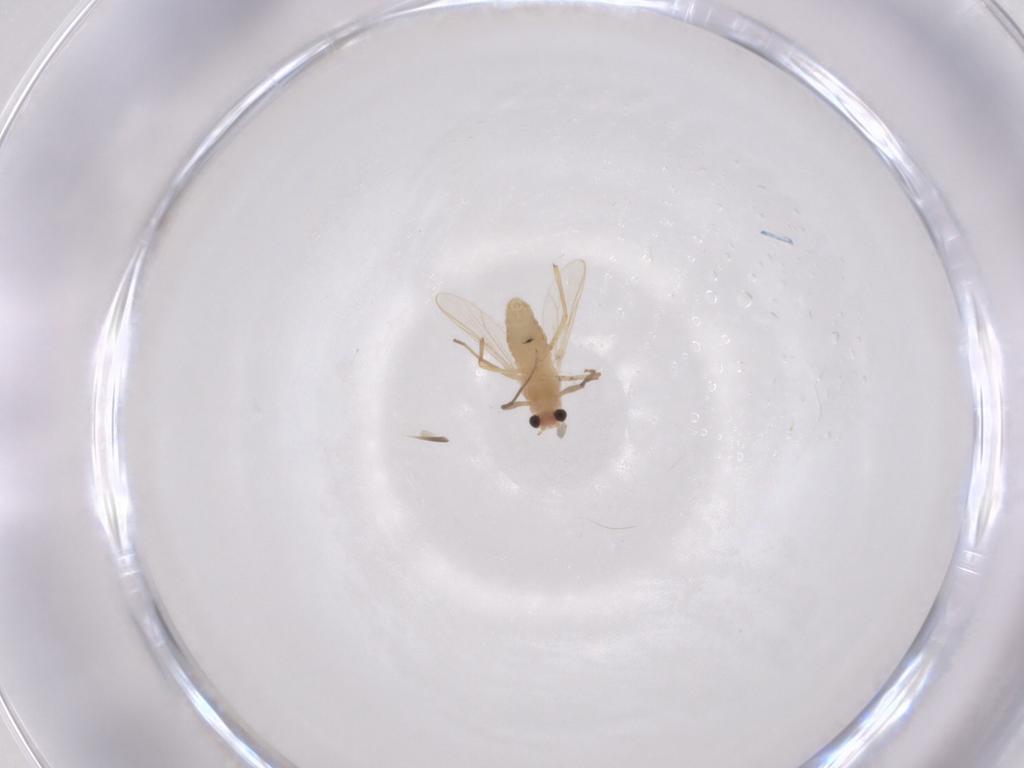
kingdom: Animalia
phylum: Arthropoda
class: Insecta
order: Diptera
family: Chironomidae
